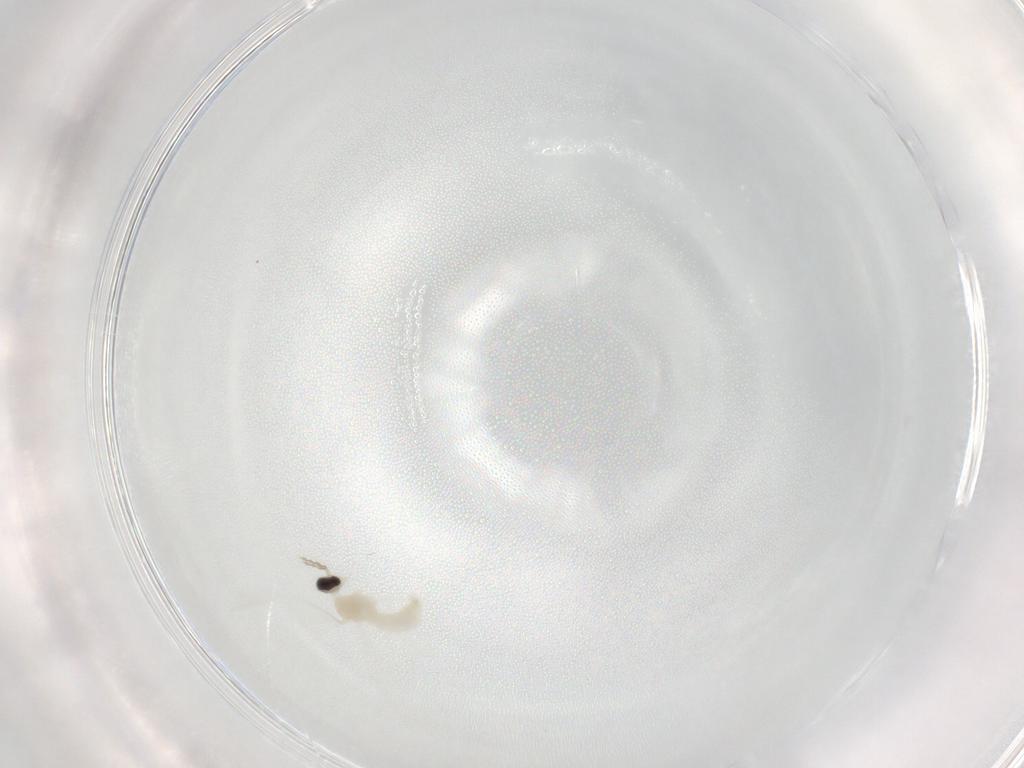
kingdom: Animalia
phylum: Arthropoda
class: Insecta
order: Diptera
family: Cecidomyiidae
